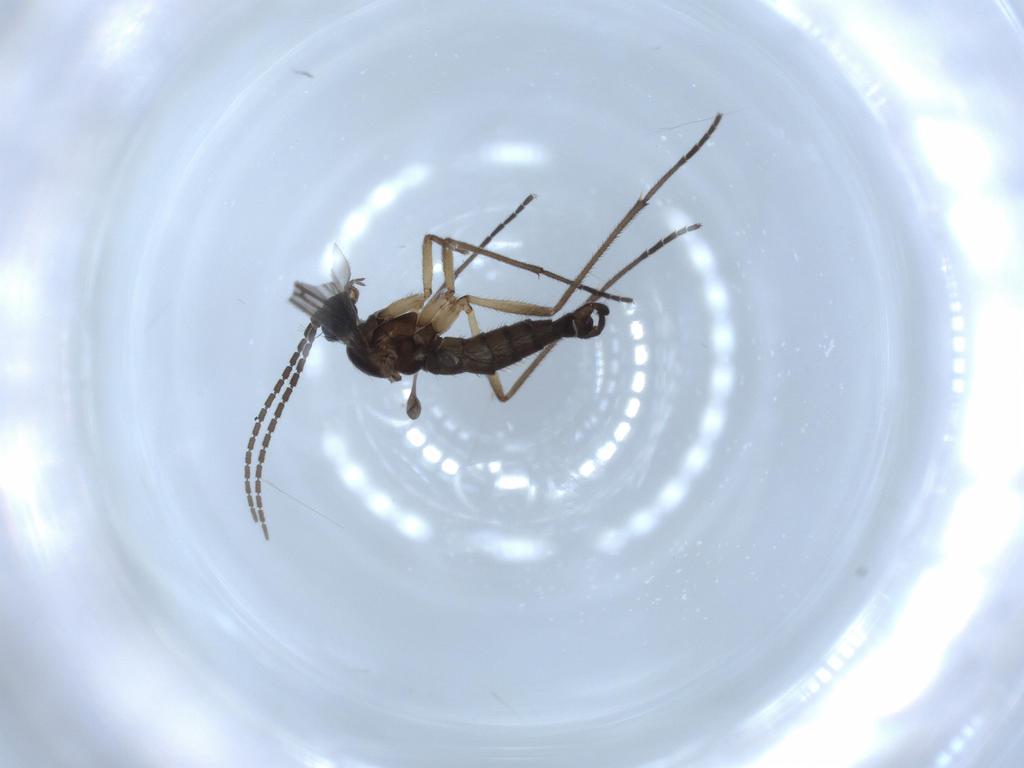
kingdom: Animalia
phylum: Arthropoda
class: Insecta
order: Diptera
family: Sciaridae
